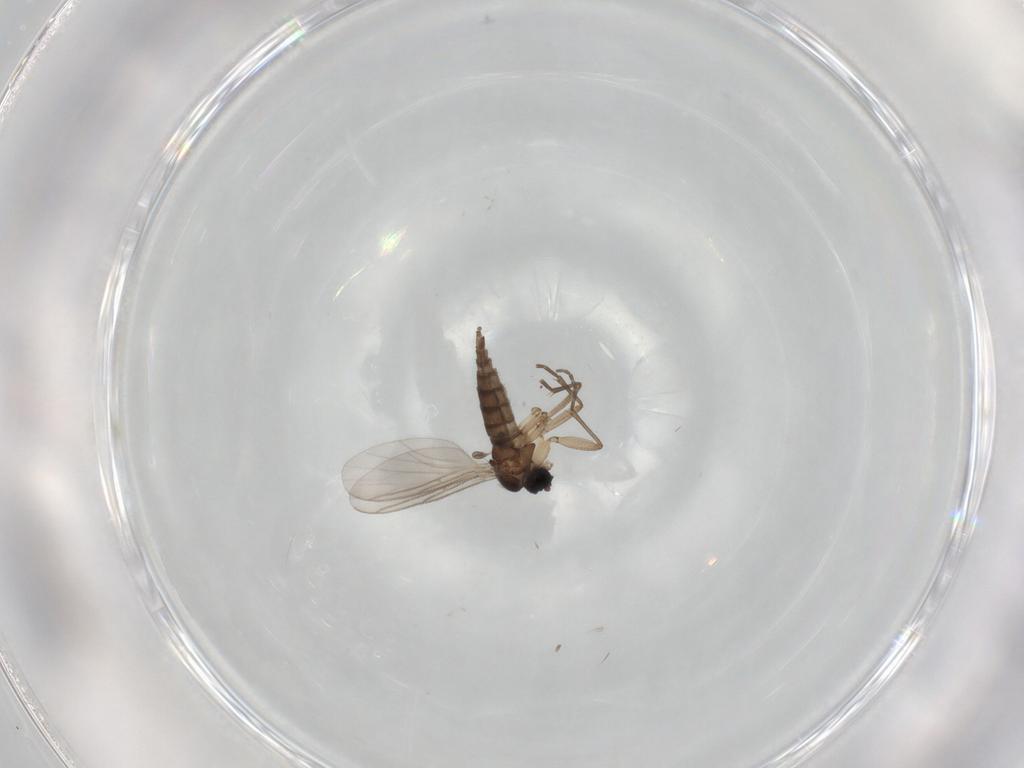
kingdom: Animalia
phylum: Arthropoda
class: Insecta
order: Diptera
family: Sciaridae
